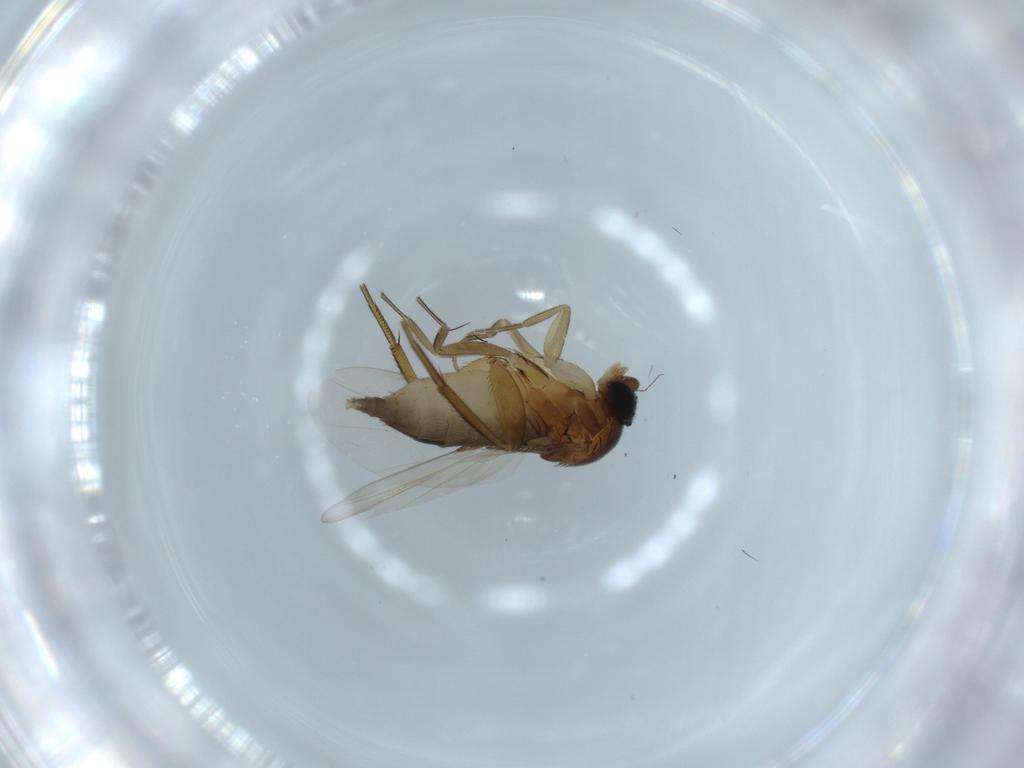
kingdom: Animalia
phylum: Arthropoda
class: Insecta
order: Diptera
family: Phoridae
